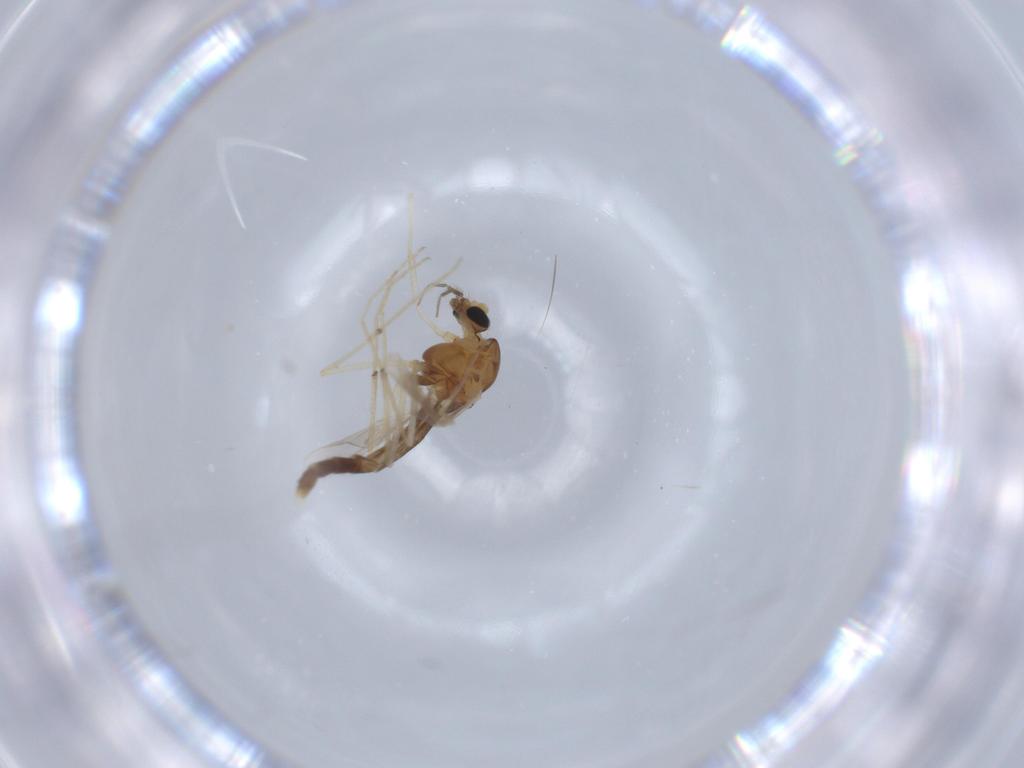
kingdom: Animalia
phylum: Arthropoda
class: Insecta
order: Diptera
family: Chironomidae
